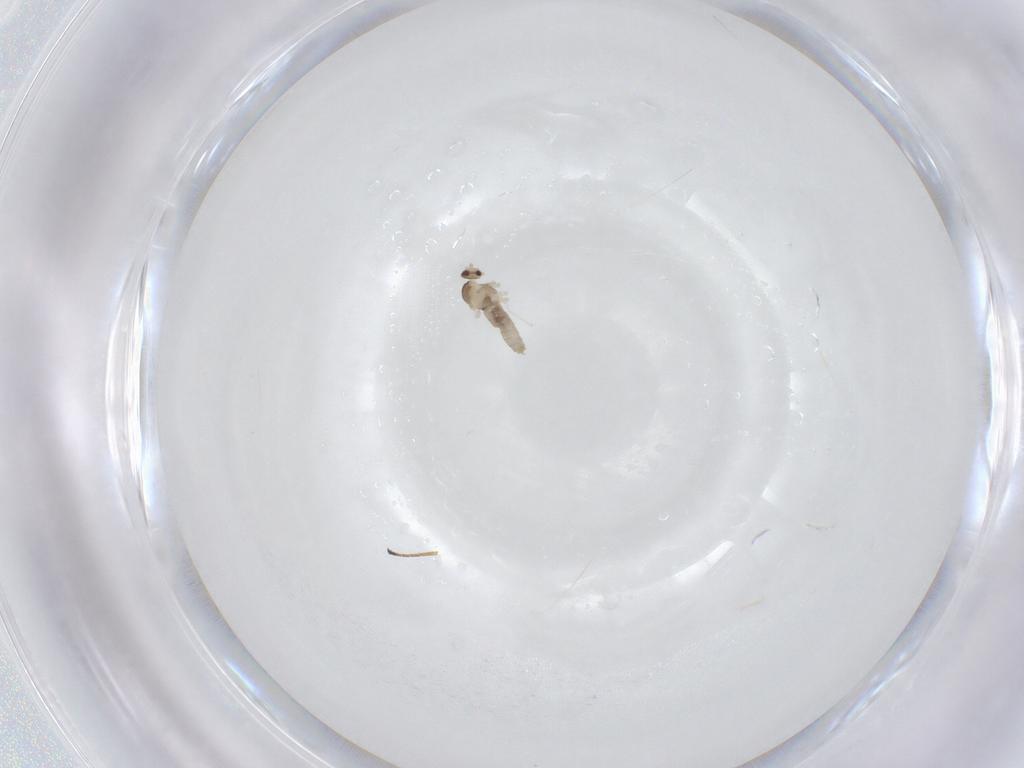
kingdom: Animalia
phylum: Arthropoda
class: Insecta
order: Diptera
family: Cecidomyiidae
